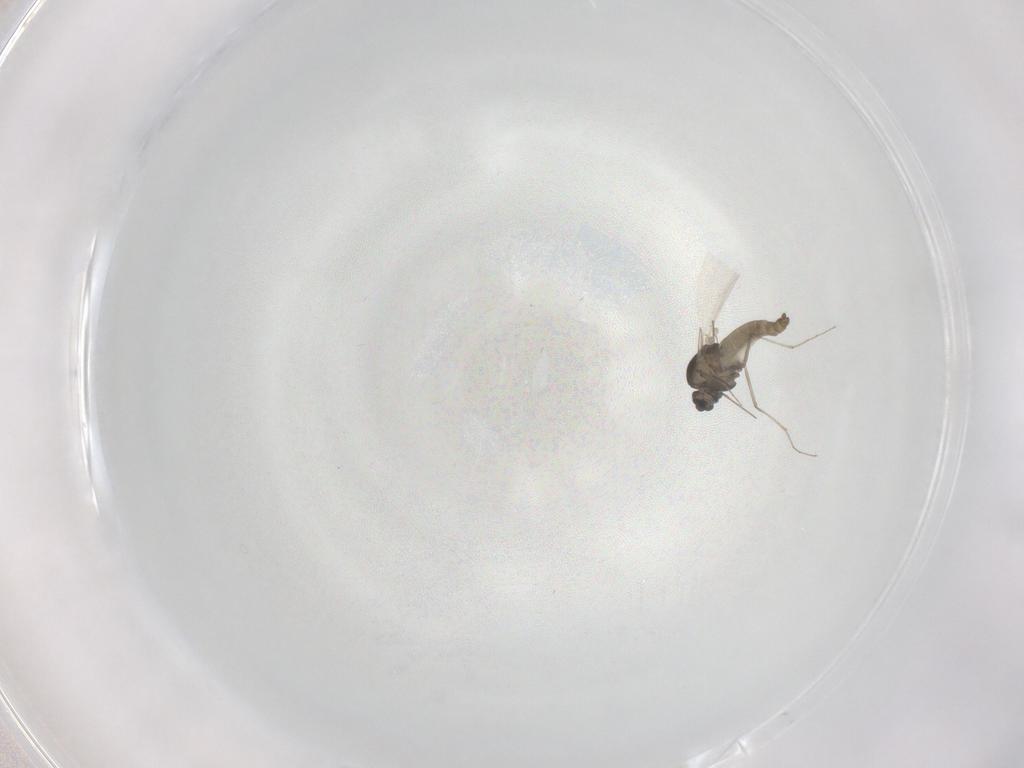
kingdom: Animalia
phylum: Arthropoda
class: Insecta
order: Diptera
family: Chironomidae
